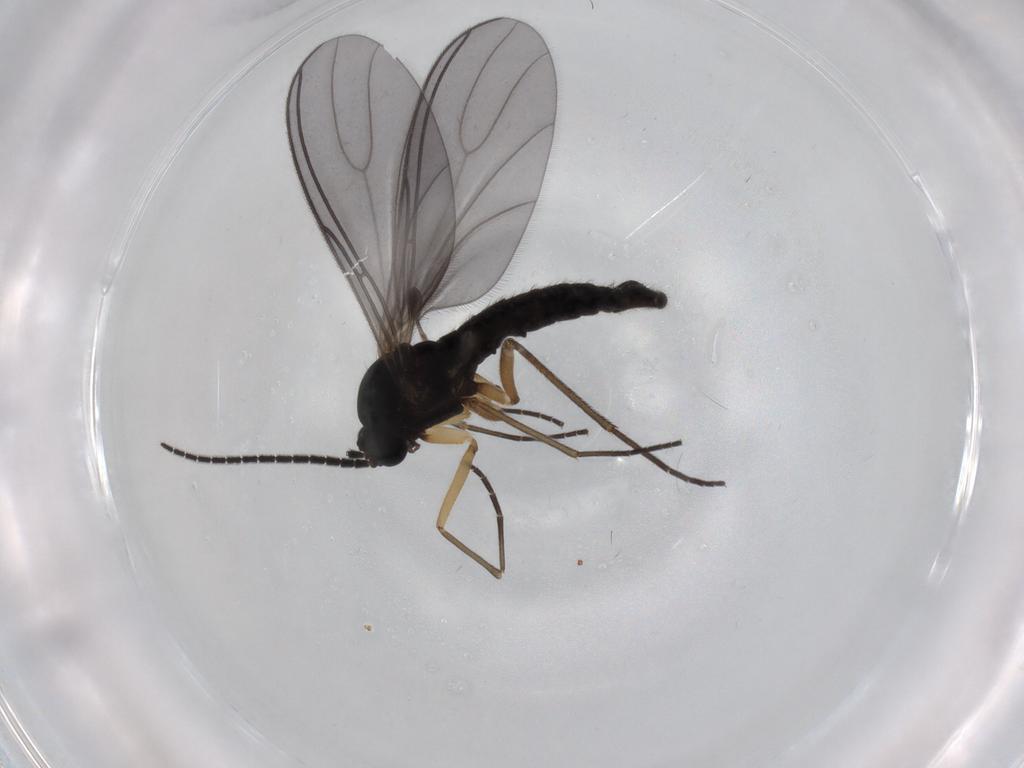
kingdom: Animalia
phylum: Arthropoda
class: Insecta
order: Diptera
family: Sciaridae
